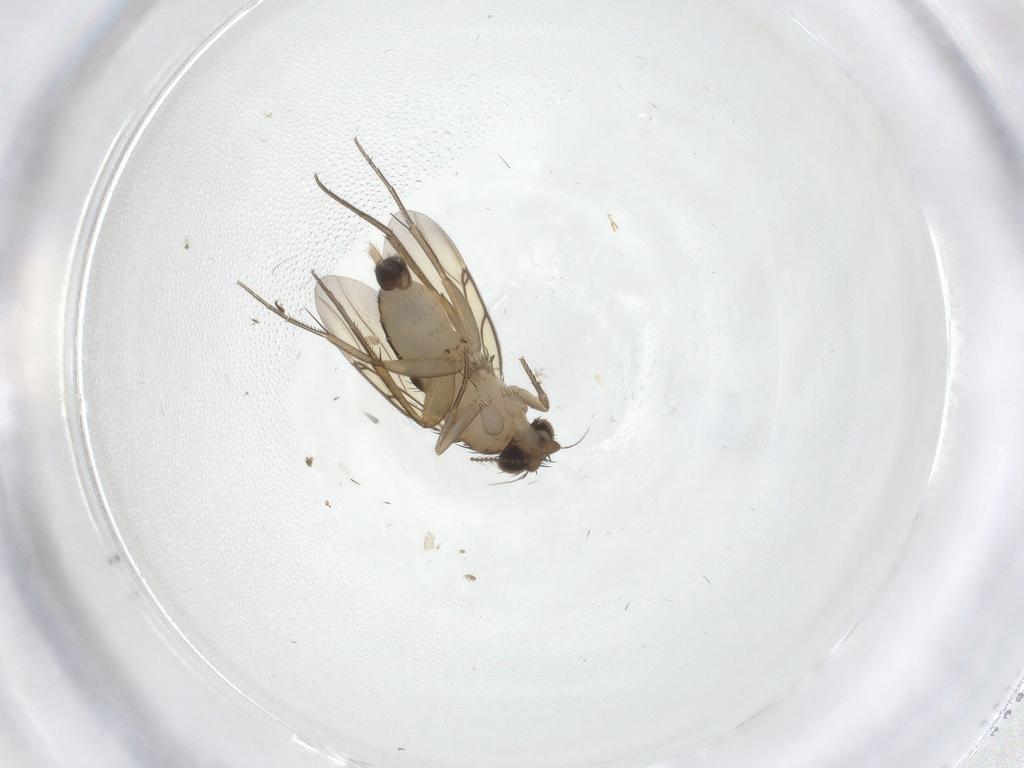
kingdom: Animalia
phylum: Arthropoda
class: Insecta
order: Diptera
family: Cecidomyiidae
